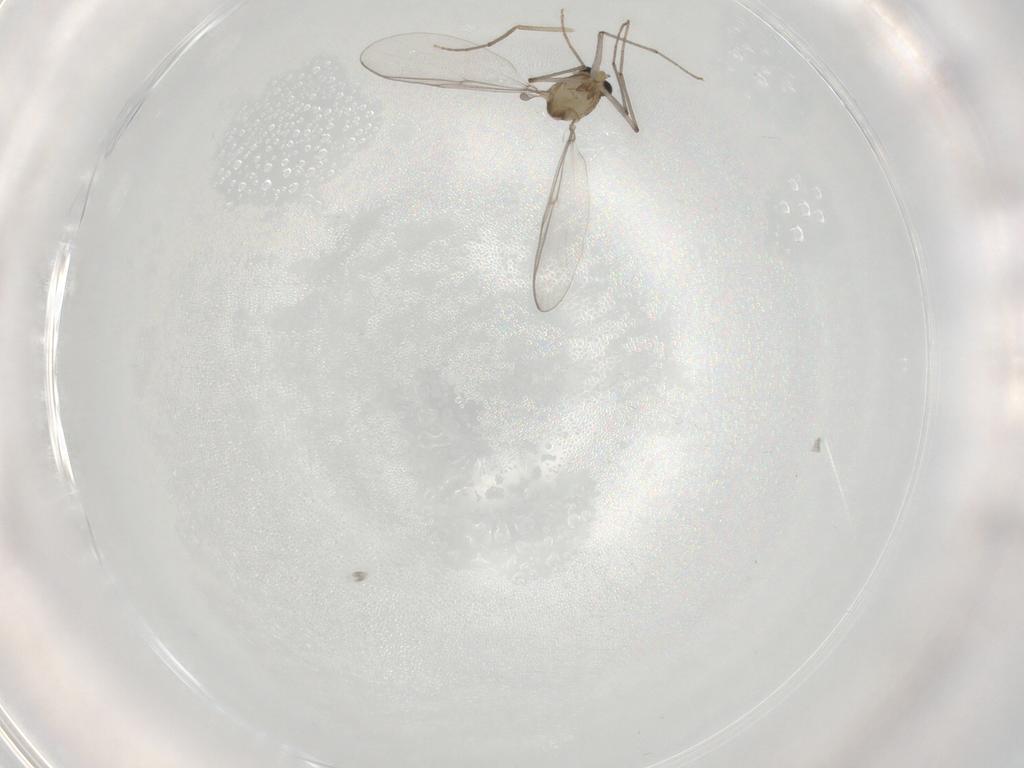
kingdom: Animalia
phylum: Arthropoda
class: Insecta
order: Diptera
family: Chironomidae
